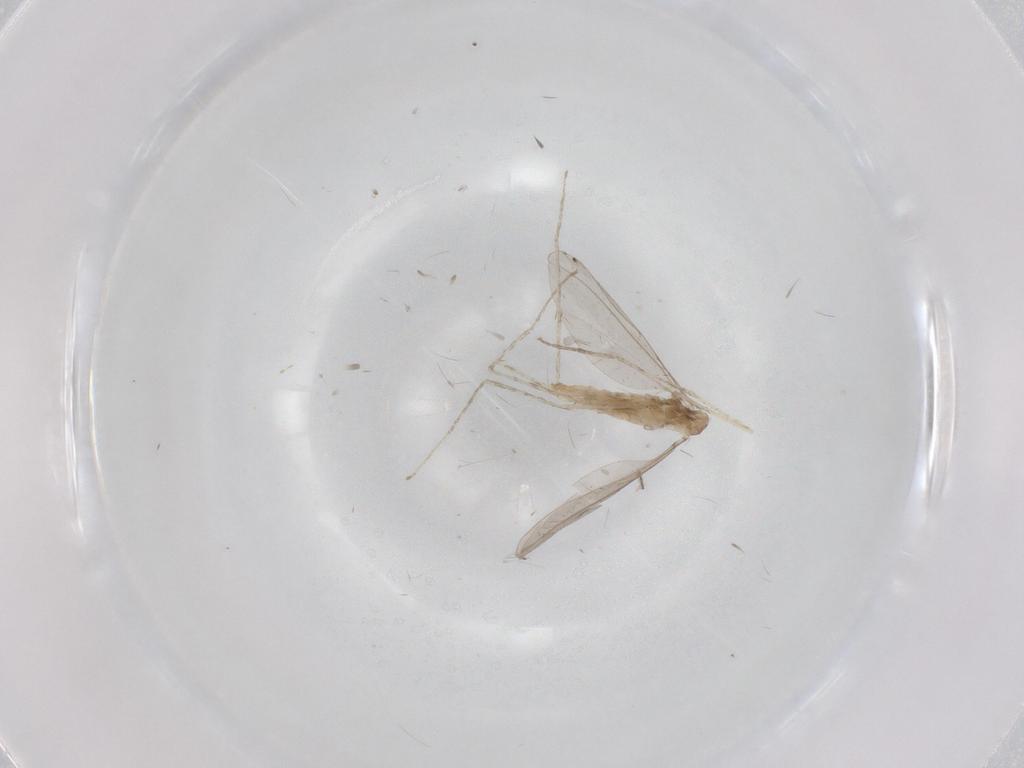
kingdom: Animalia
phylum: Arthropoda
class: Insecta
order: Diptera
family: Cecidomyiidae
